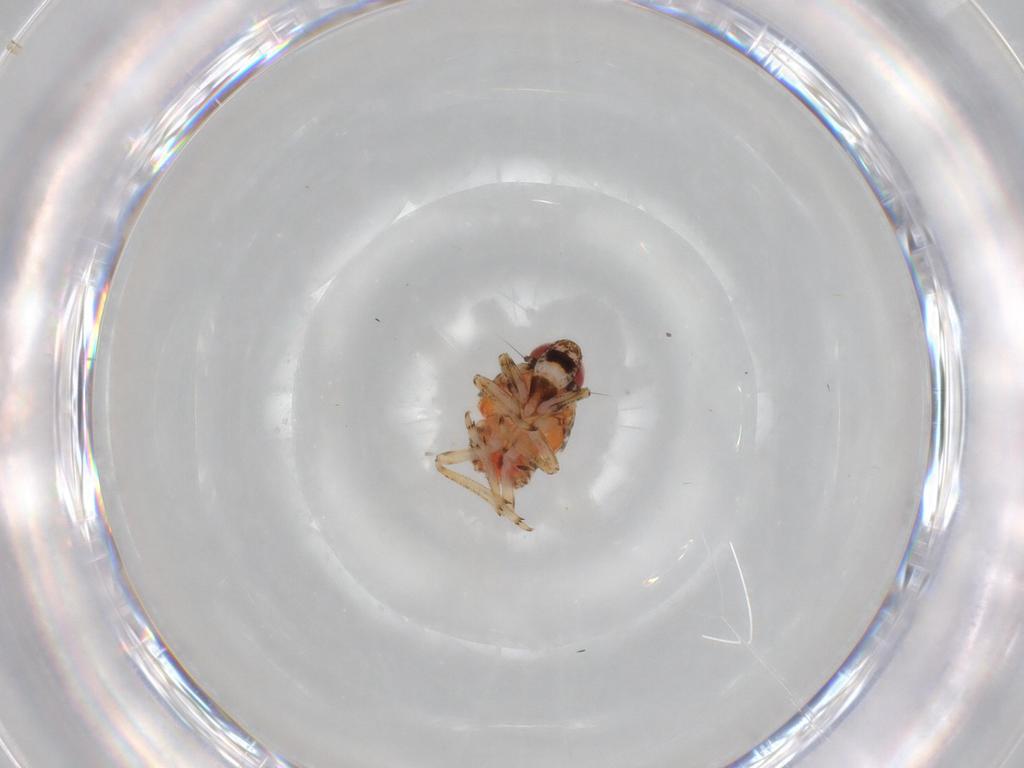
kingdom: Animalia
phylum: Arthropoda
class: Insecta
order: Hemiptera
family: Issidae
